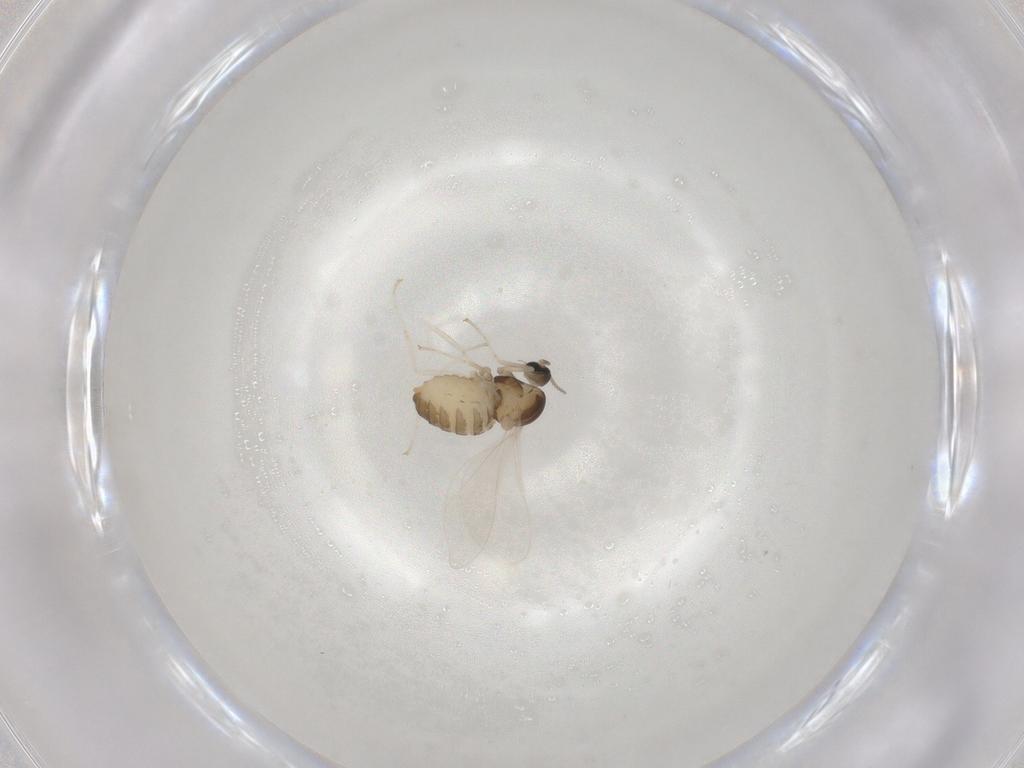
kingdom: Animalia
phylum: Arthropoda
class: Insecta
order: Diptera
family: Cecidomyiidae
